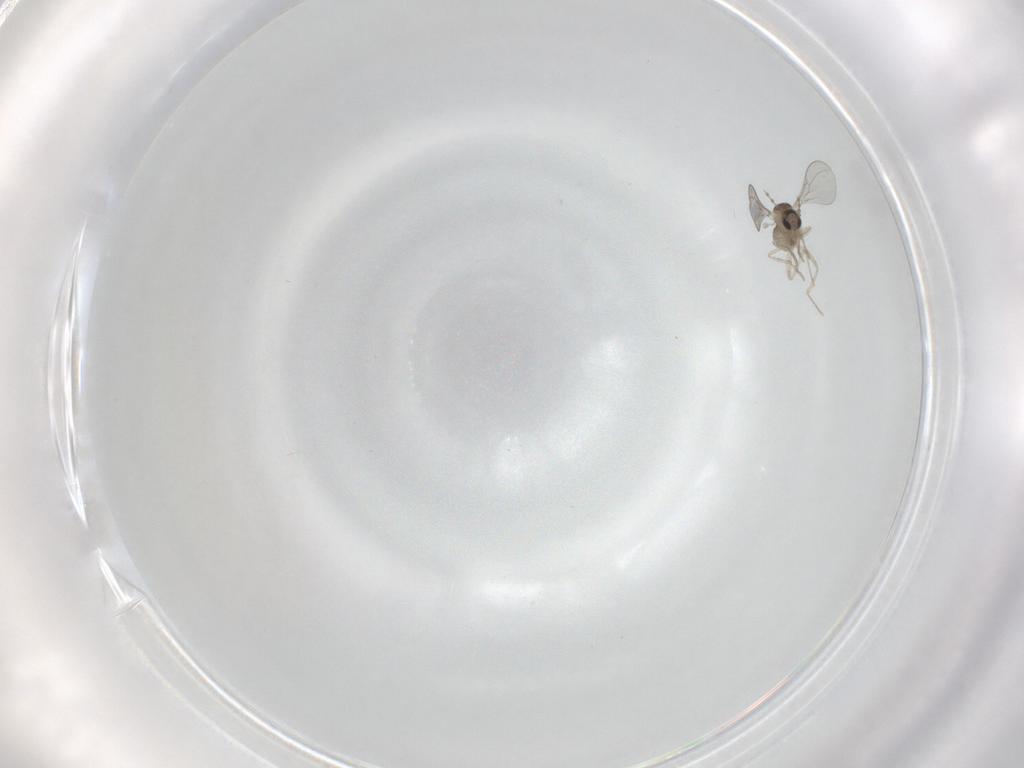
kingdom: Animalia
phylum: Arthropoda
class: Insecta
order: Diptera
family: Cecidomyiidae
